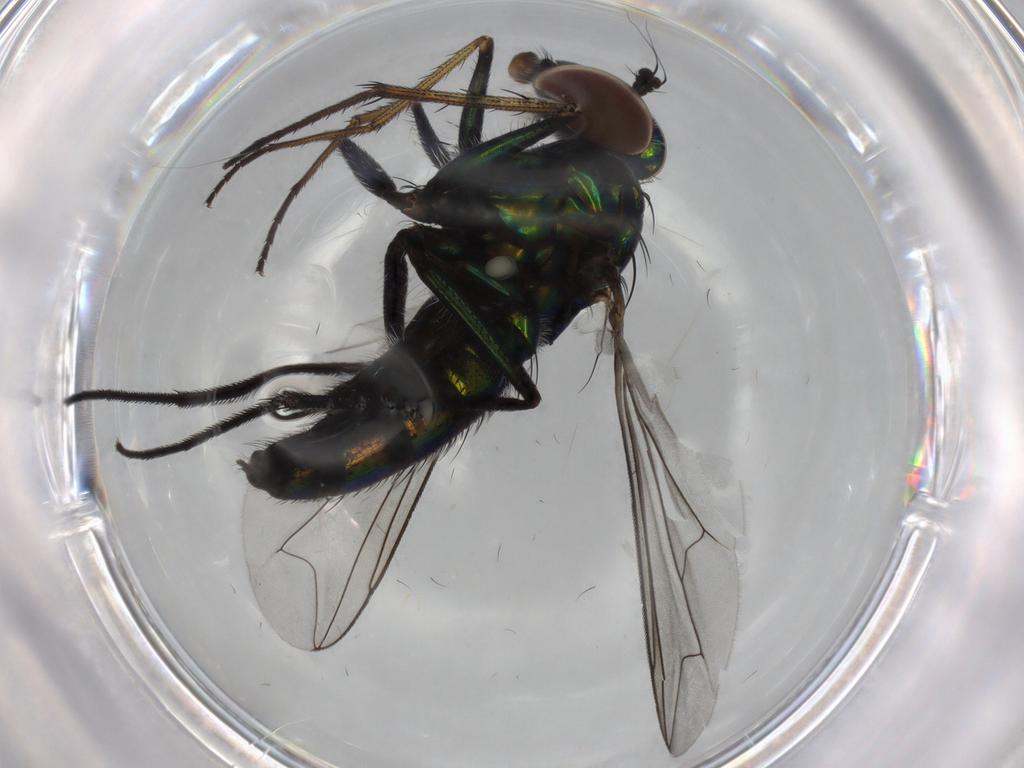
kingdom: Animalia
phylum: Arthropoda
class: Insecta
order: Diptera
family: Dolichopodidae
